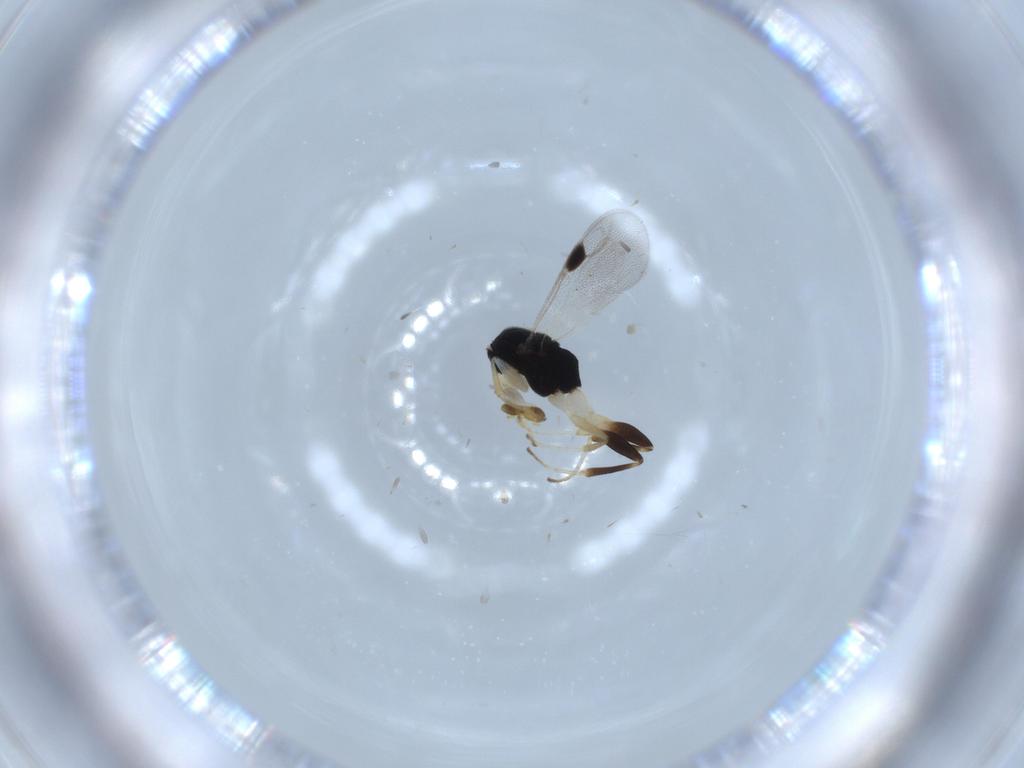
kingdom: Animalia
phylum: Arthropoda
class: Insecta
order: Hymenoptera
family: Dryinidae
